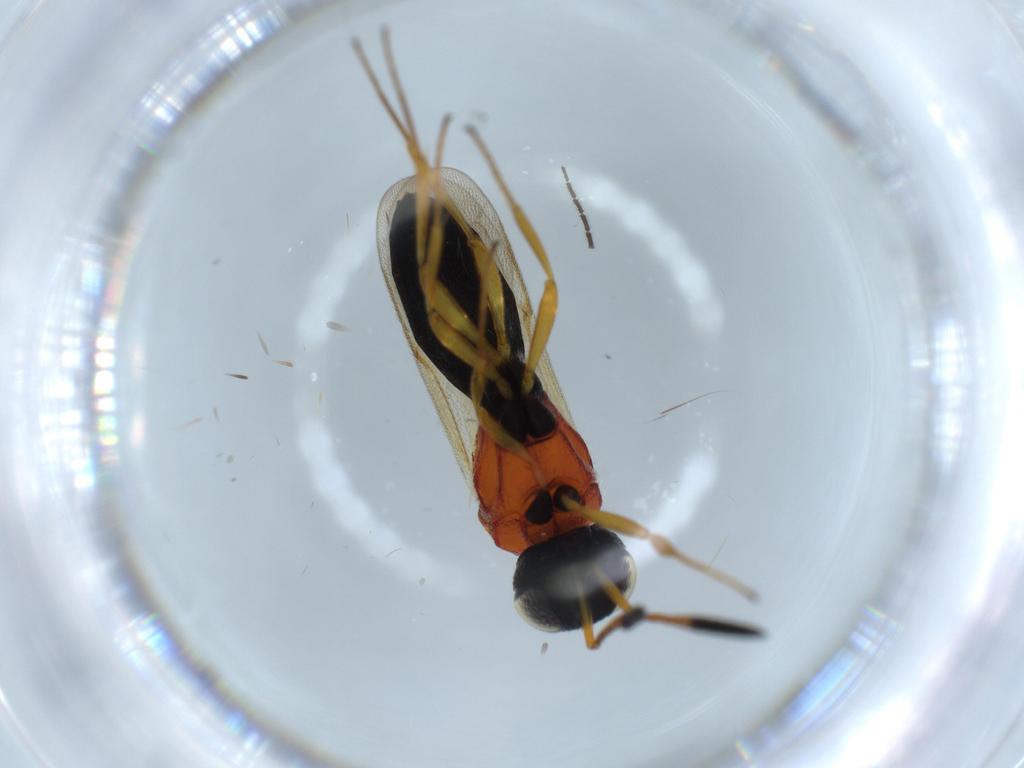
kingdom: Animalia
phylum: Arthropoda
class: Insecta
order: Hymenoptera
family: Scelionidae
